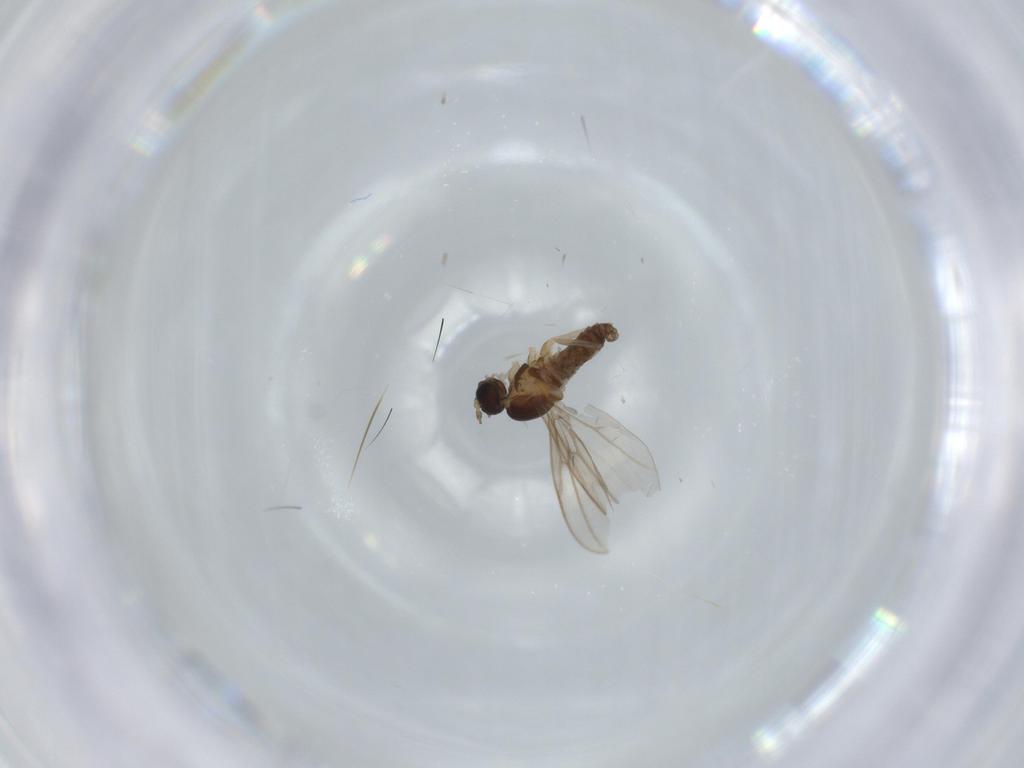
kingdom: Animalia
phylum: Arthropoda
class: Insecta
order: Diptera
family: Syrphidae
